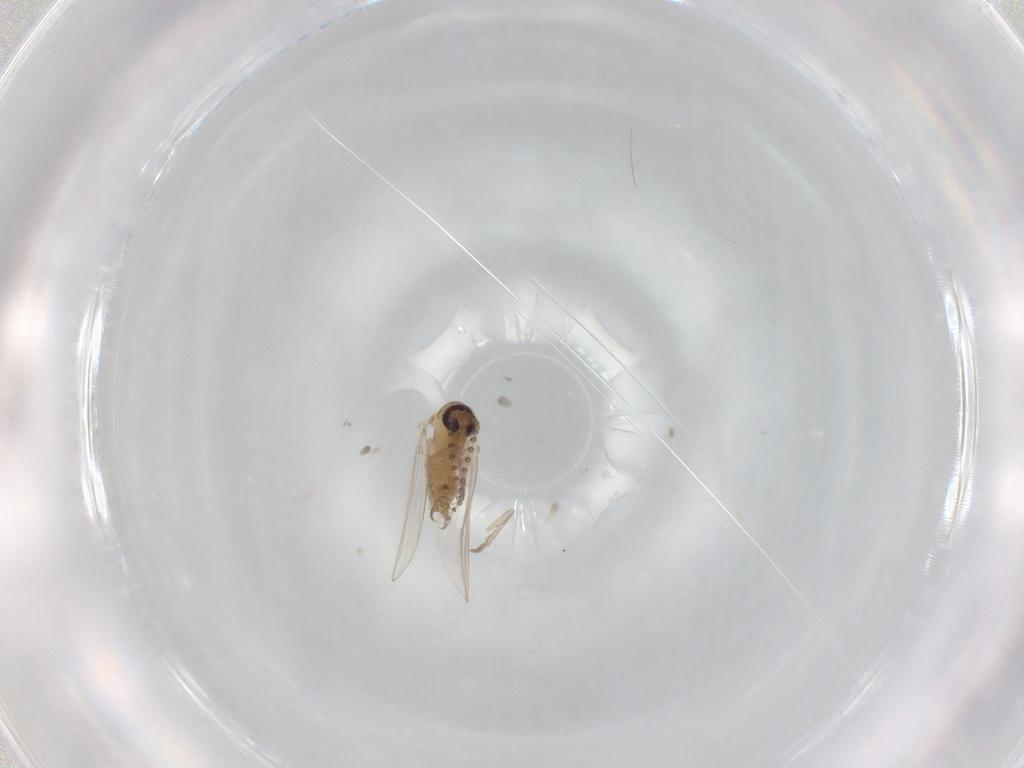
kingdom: Animalia
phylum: Arthropoda
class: Insecta
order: Diptera
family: Psychodidae
